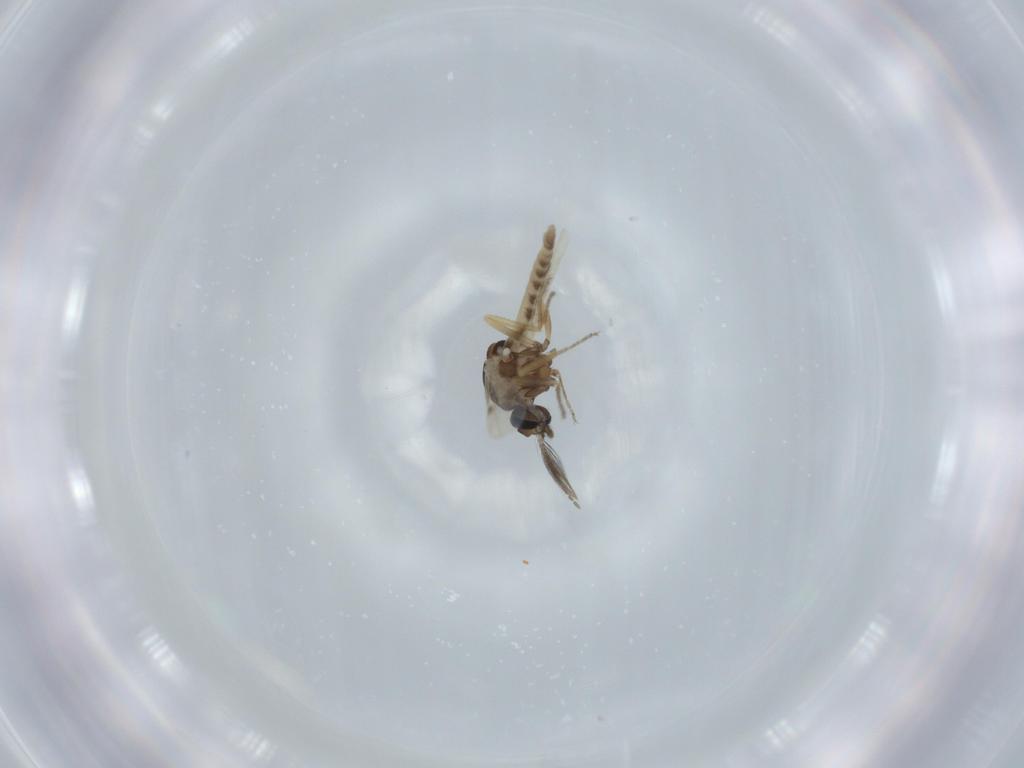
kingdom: Animalia
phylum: Arthropoda
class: Insecta
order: Diptera
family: Ceratopogonidae
